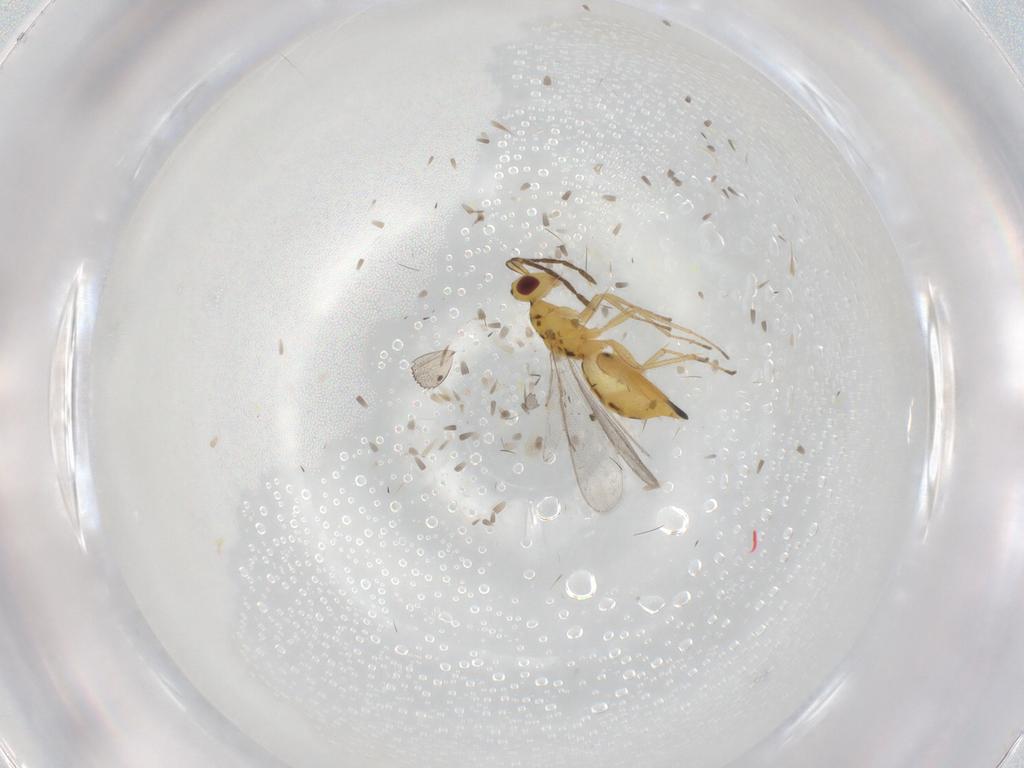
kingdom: Animalia
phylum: Arthropoda
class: Insecta
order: Hymenoptera
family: Eulophidae
